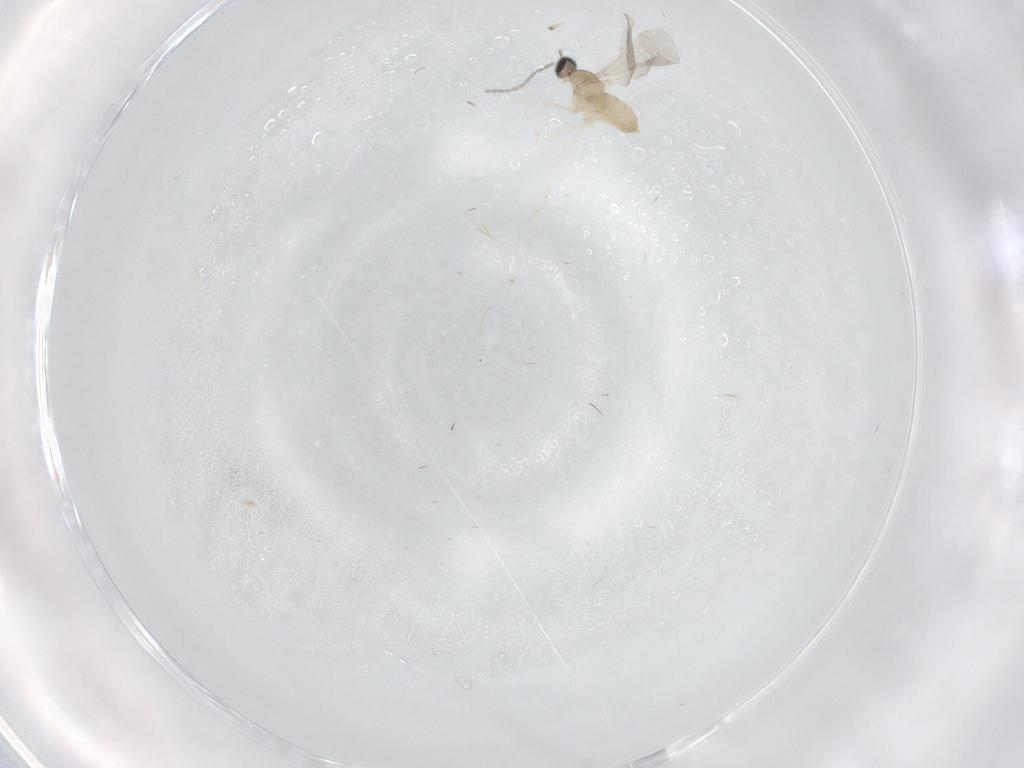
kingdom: Animalia
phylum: Arthropoda
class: Insecta
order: Diptera
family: Cecidomyiidae
